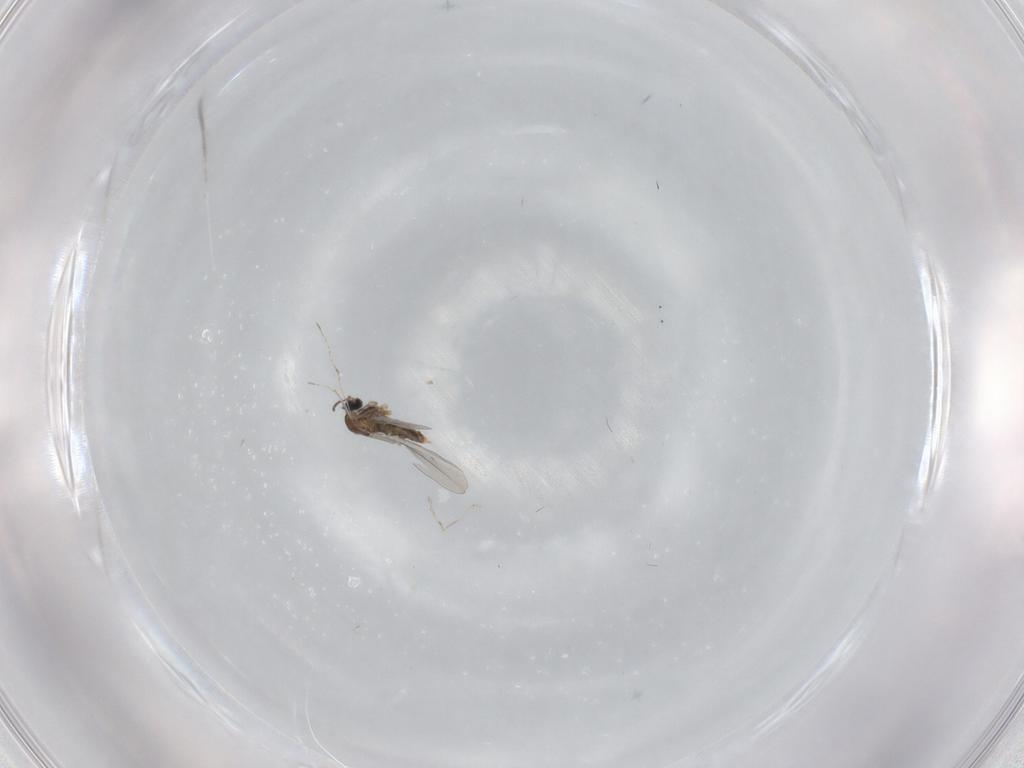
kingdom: Animalia
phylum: Arthropoda
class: Insecta
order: Diptera
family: Cecidomyiidae
